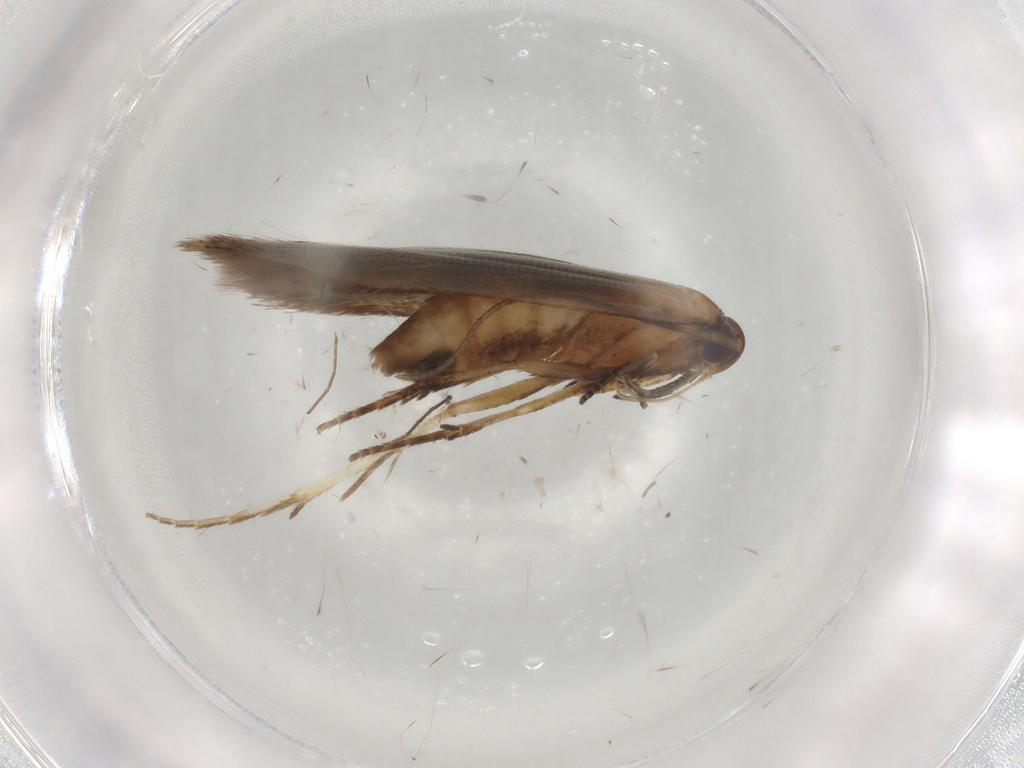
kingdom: Animalia
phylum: Arthropoda
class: Insecta
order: Lepidoptera
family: Cosmopterigidae
